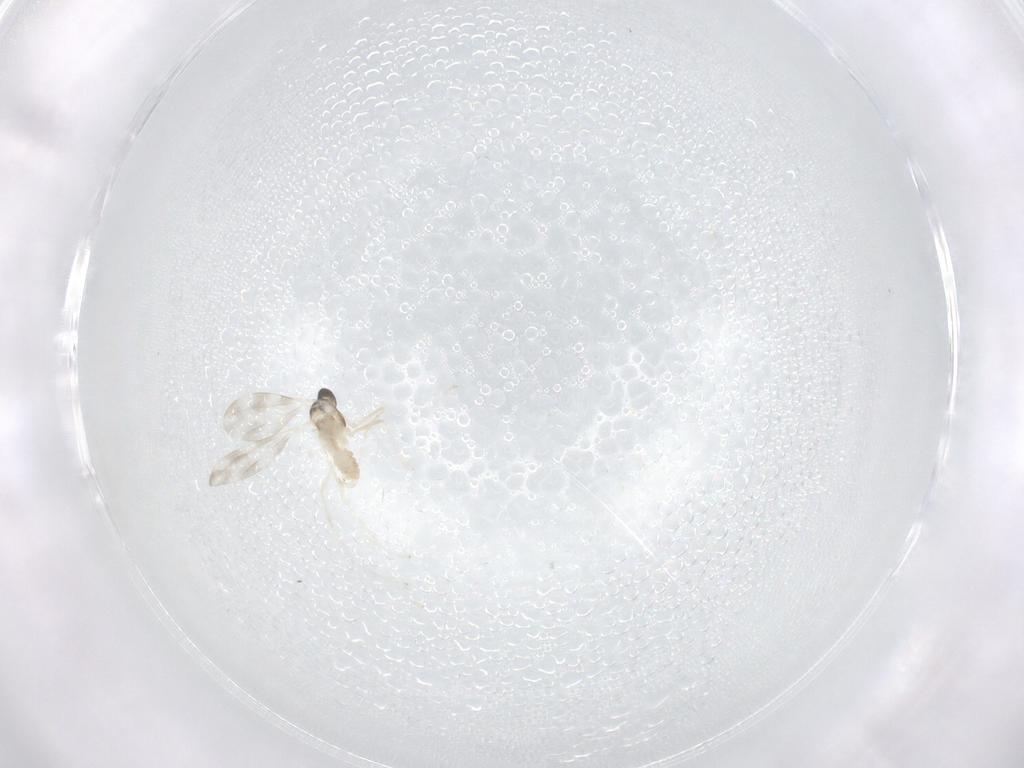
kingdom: Animalia
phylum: Arthropoda
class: Insecta
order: Diptera
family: Cecidomyiidae
